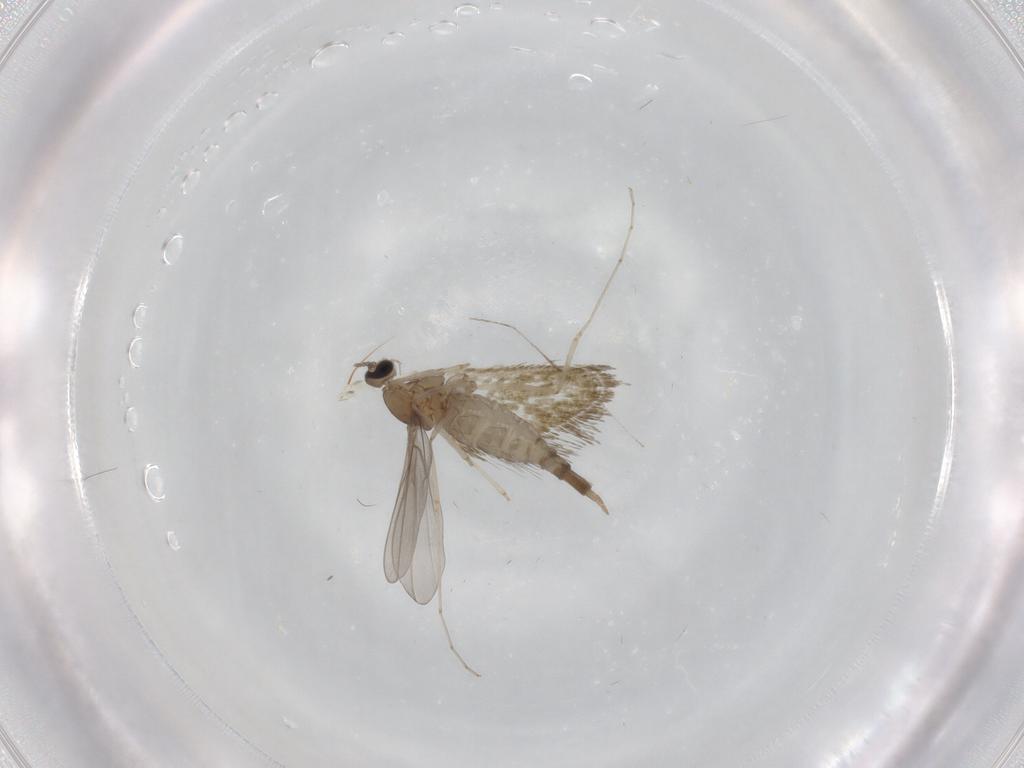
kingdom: Animalia
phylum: Arthropoda
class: Insecta
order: Diptera
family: Cecidomyiidae
